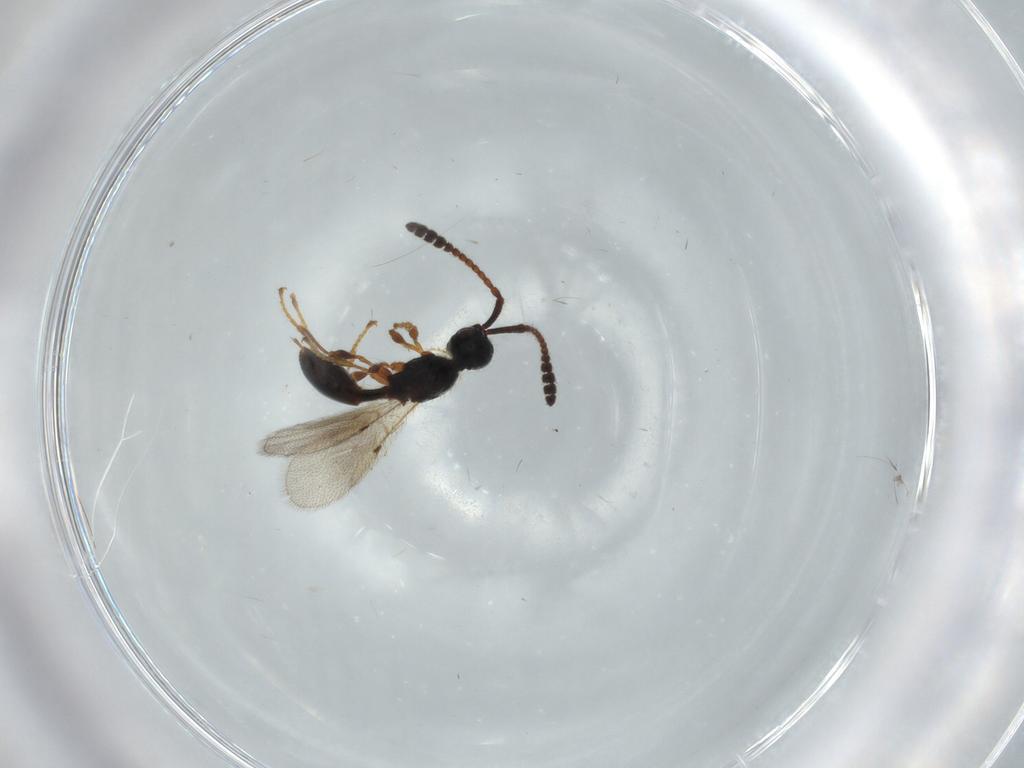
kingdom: Animalia
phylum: Arthropoda
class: Insecta
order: Hymenoptera
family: Diapriidae
